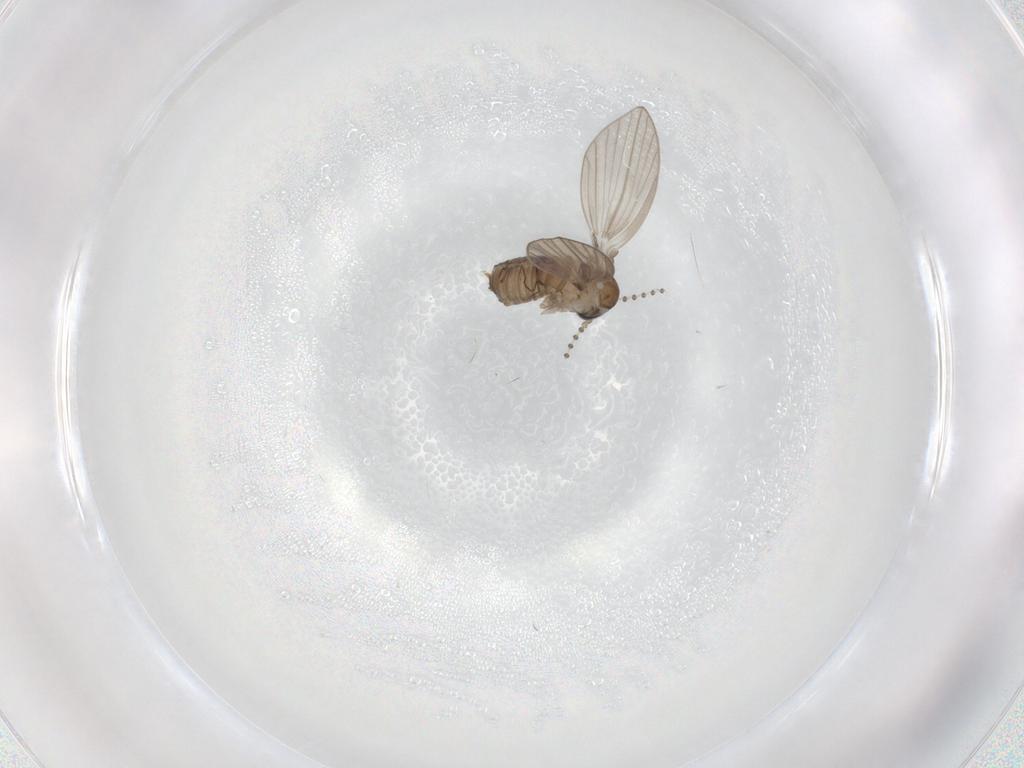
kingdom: Animalia
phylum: Arthropoda
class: Insecta
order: Diptera
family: Psychodidae
